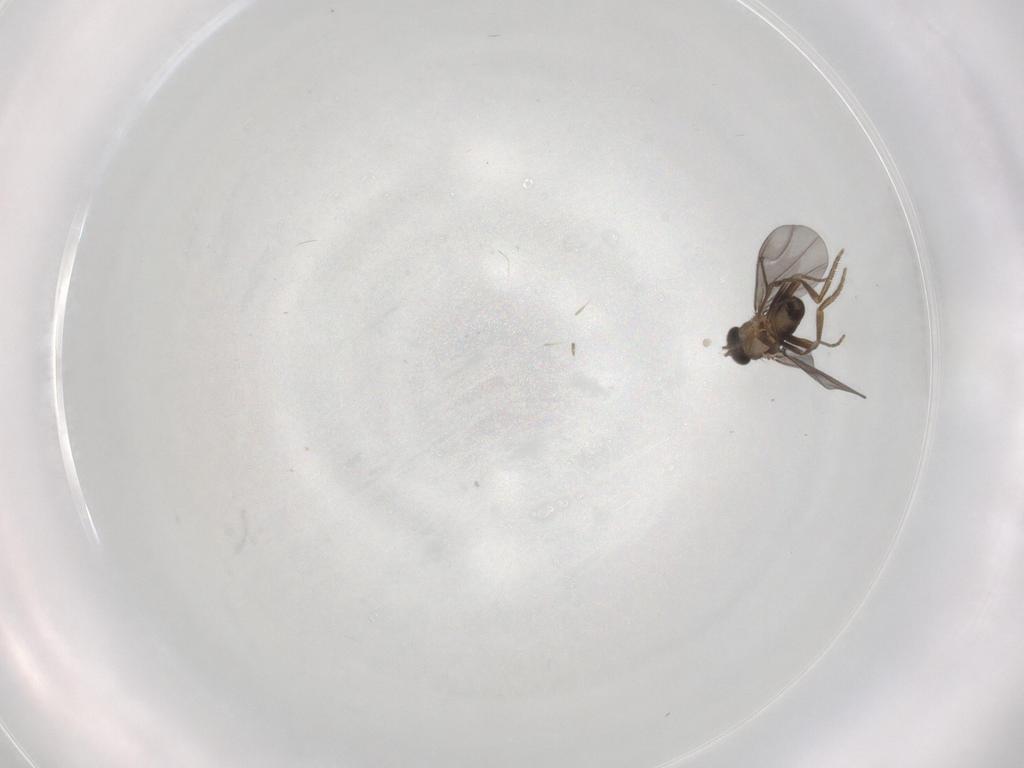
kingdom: Animalia
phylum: Arthropoda
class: Insecta
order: Diptera
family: Phoridae
